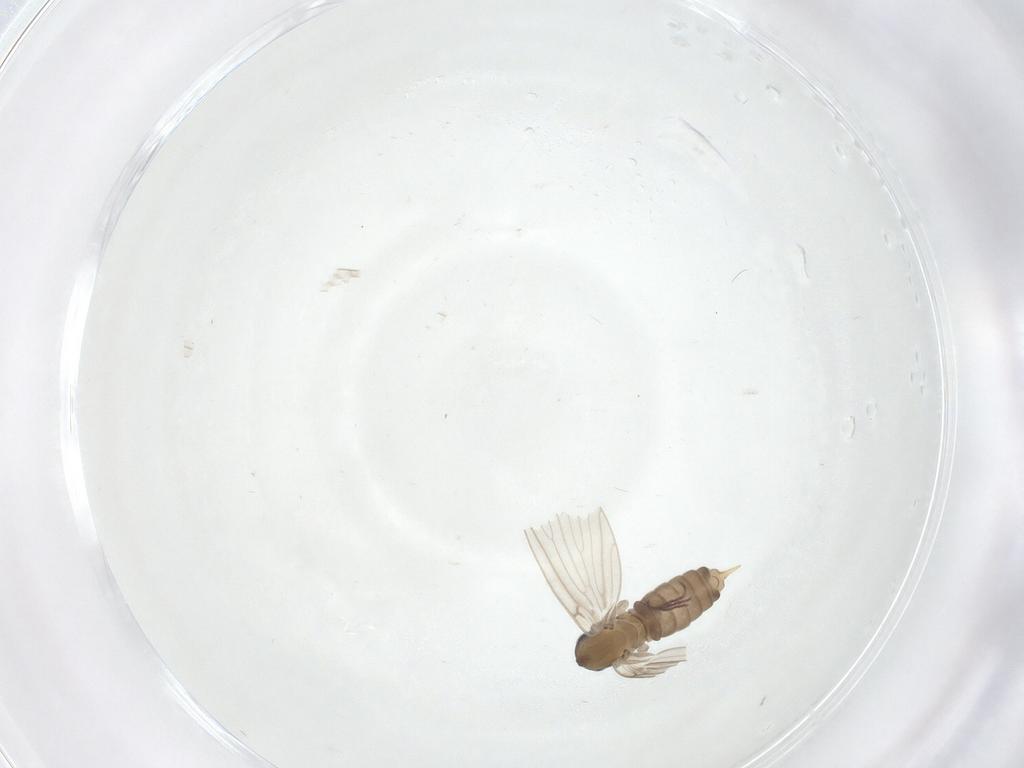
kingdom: Animalia
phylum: Arthropoda
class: Insecta
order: Diptera
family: Psychodidae
